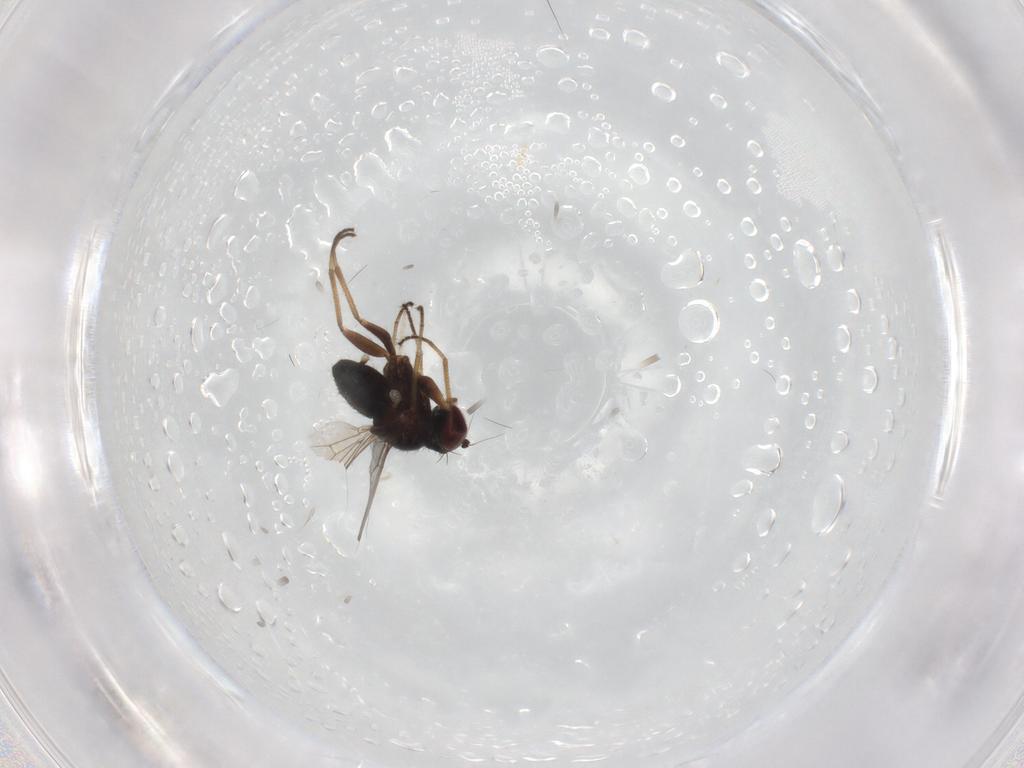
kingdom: Animalia
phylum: Arthropoda
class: Insecta
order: Diptera
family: Dolichopodidae
